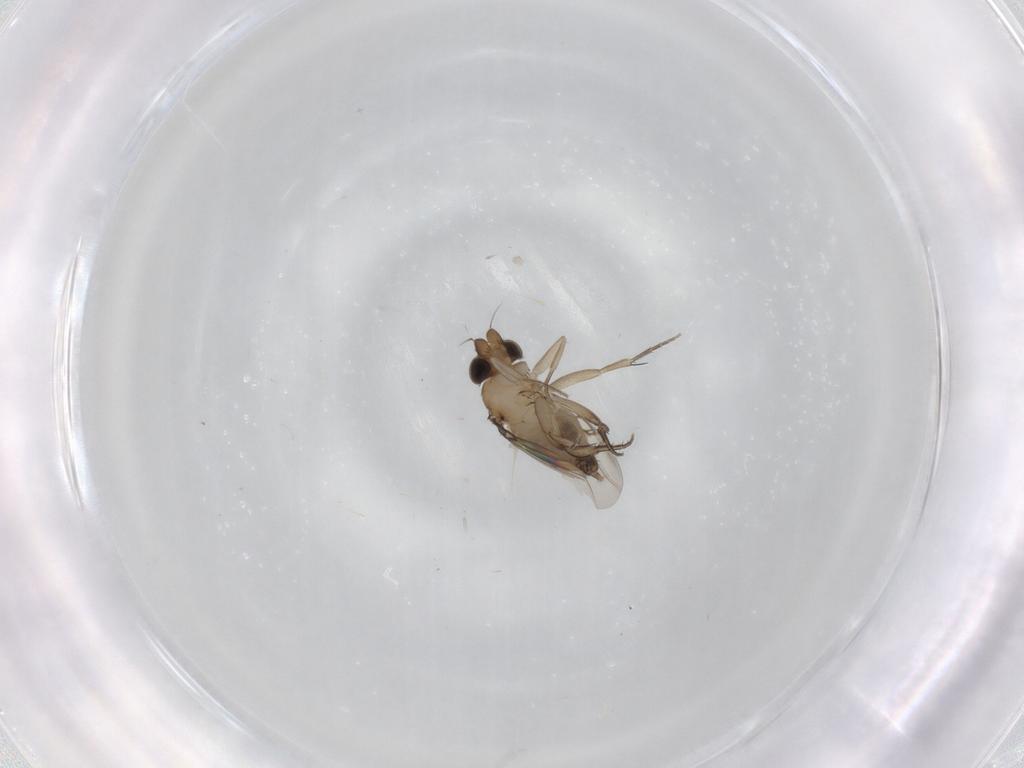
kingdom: Animalia
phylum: Arthropoda
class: Insecta
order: Diptera
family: Phoridae
